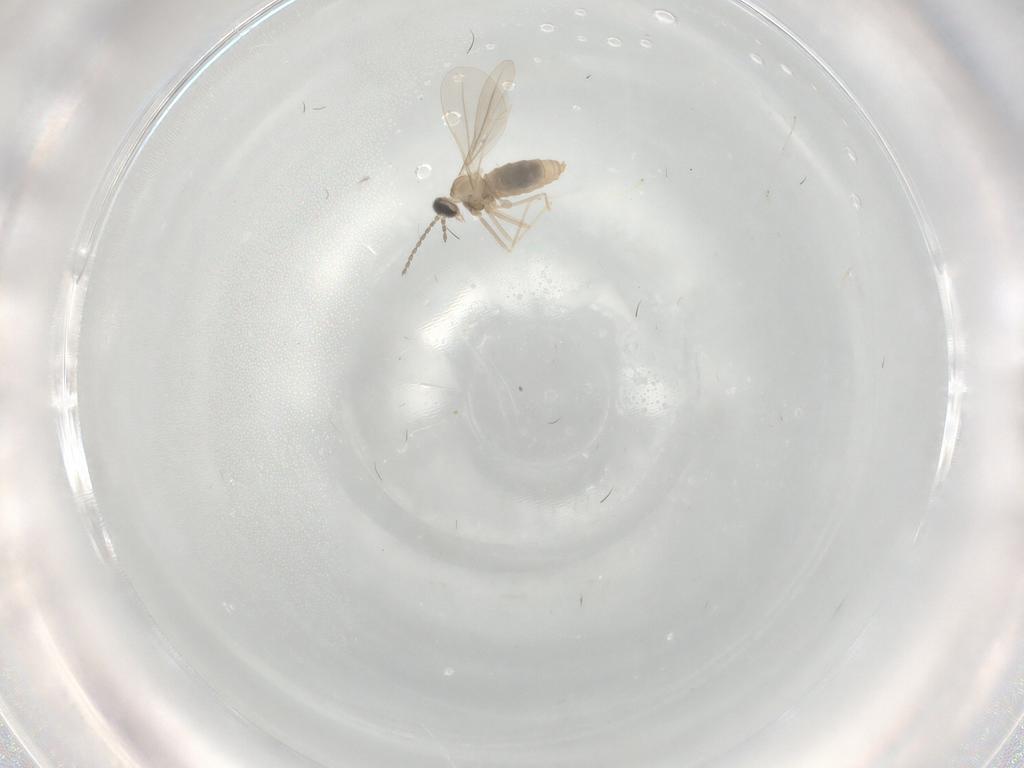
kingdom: Animalia
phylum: Arthropoda
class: Insecta
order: Diptera
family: Cecidomyiidae
